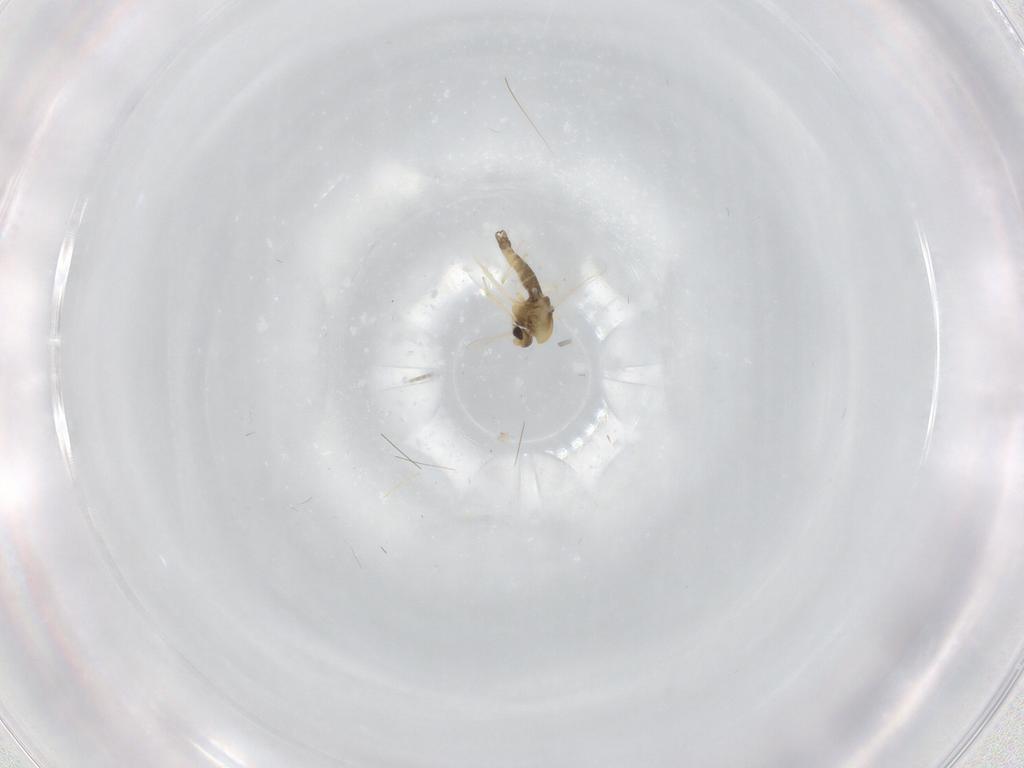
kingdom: Animalia
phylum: Arthropoda
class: Insecta
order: Diptera
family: Chironomidae
